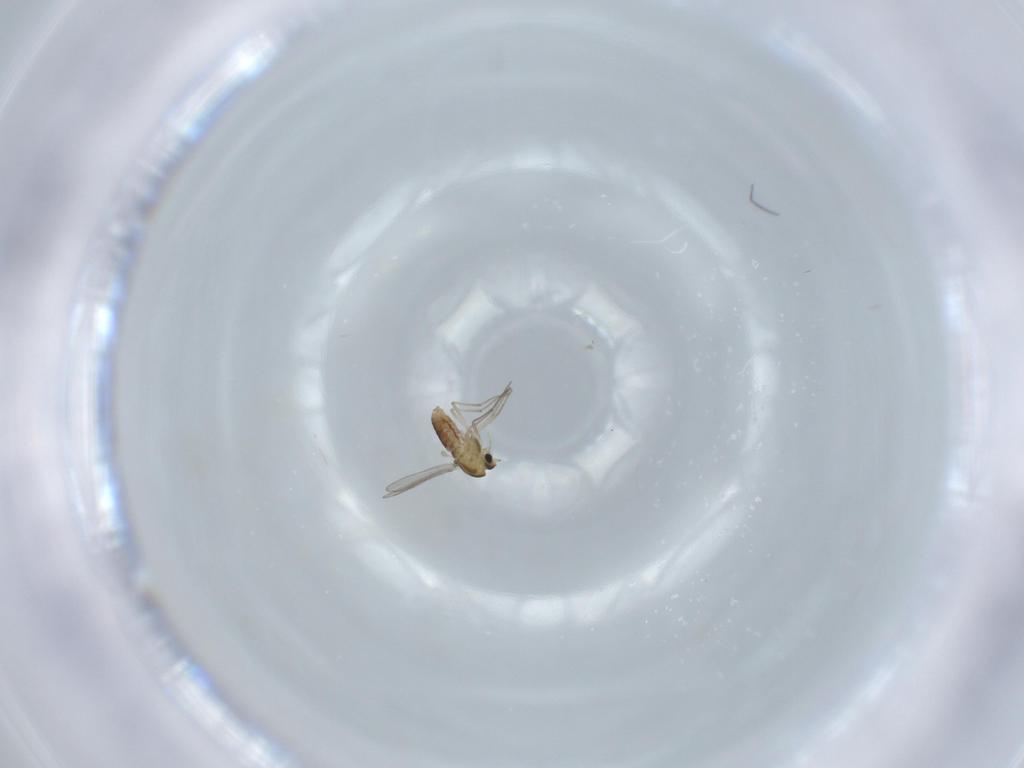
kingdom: Animalia
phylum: Arthropoda
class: Insecta
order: Diptera
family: Chironomidae
